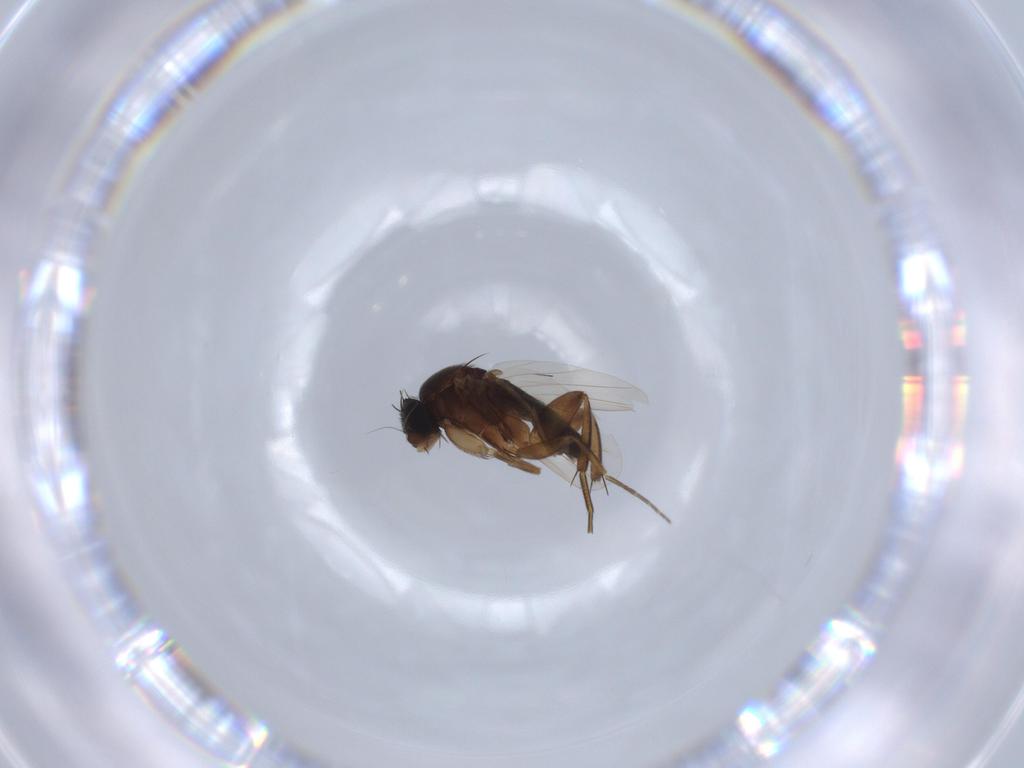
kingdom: Animalia
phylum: Arthropoda
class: Insecta
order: Diptera
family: Phoridae
